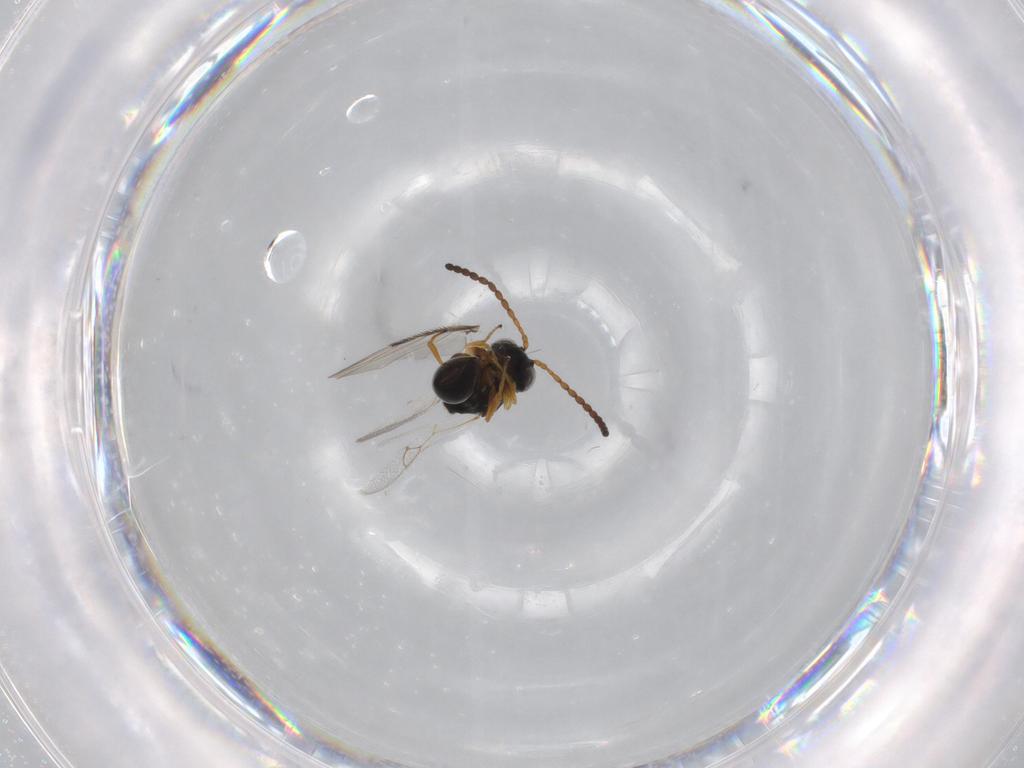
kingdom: Animalia
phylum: Arthropoda
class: Insecta
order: Hymenoptera
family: Figitidae
